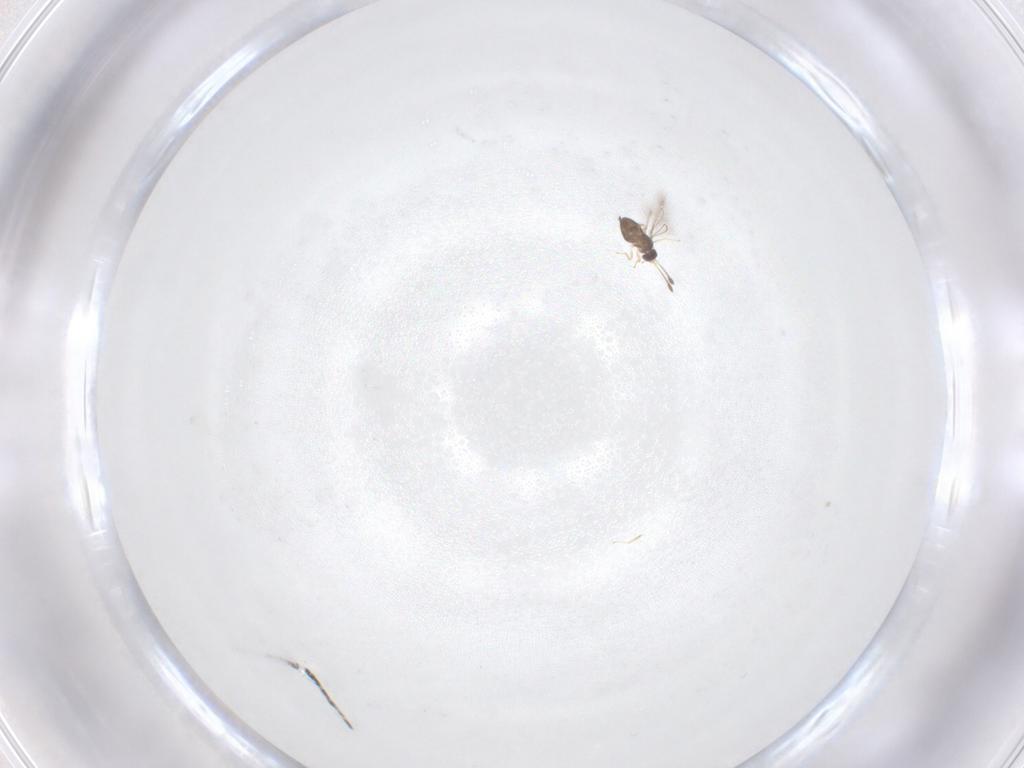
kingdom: Animalia
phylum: Arthropoda
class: Insecta
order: Hymenoptera
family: Mymaridae
